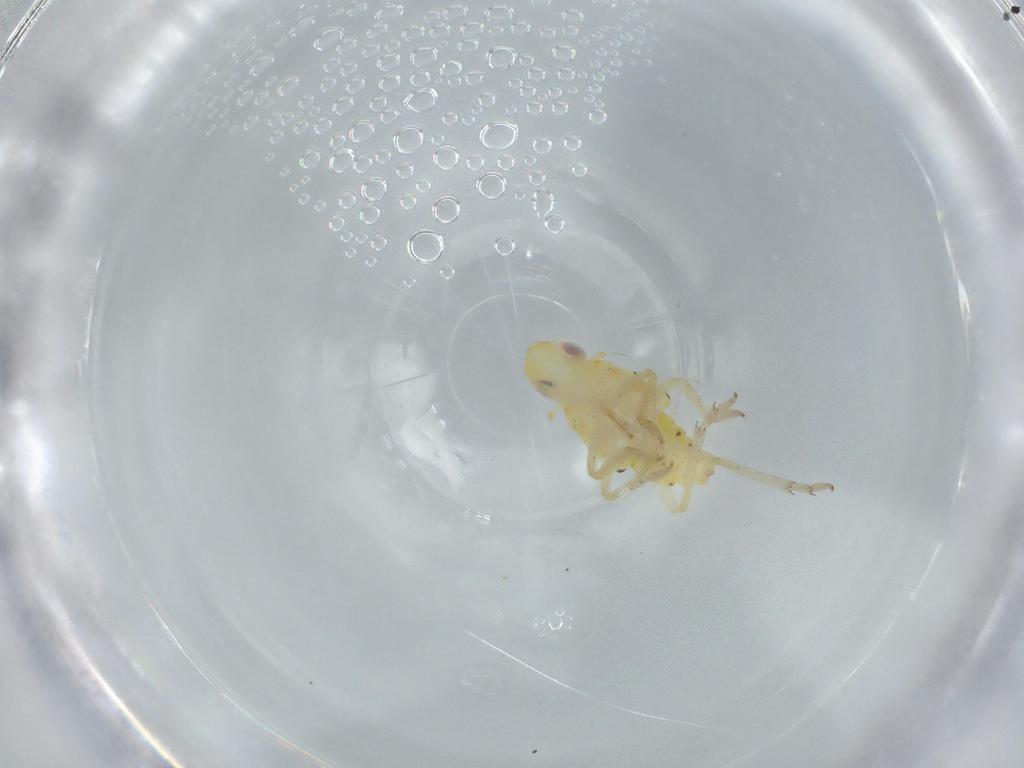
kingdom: Animalia
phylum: Arthropoda
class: Insecta
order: Hemiptera
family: Tropiduchidae
